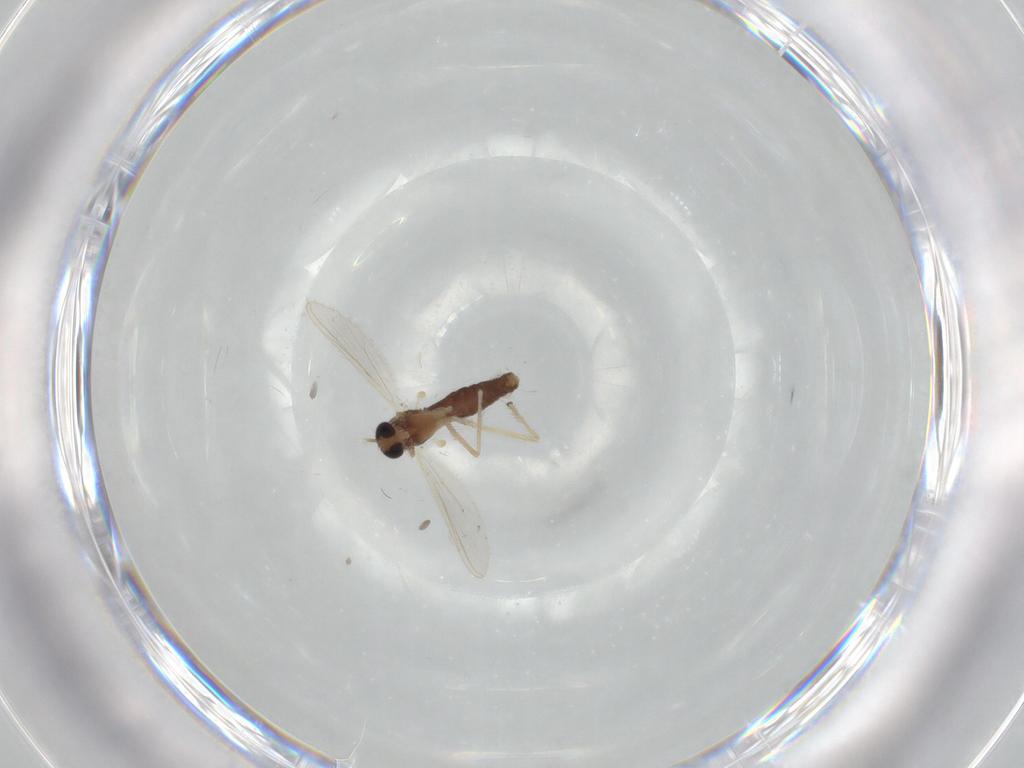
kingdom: Animalia
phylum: Arthropoda
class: Insecta
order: Diptera
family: Chironomidae
